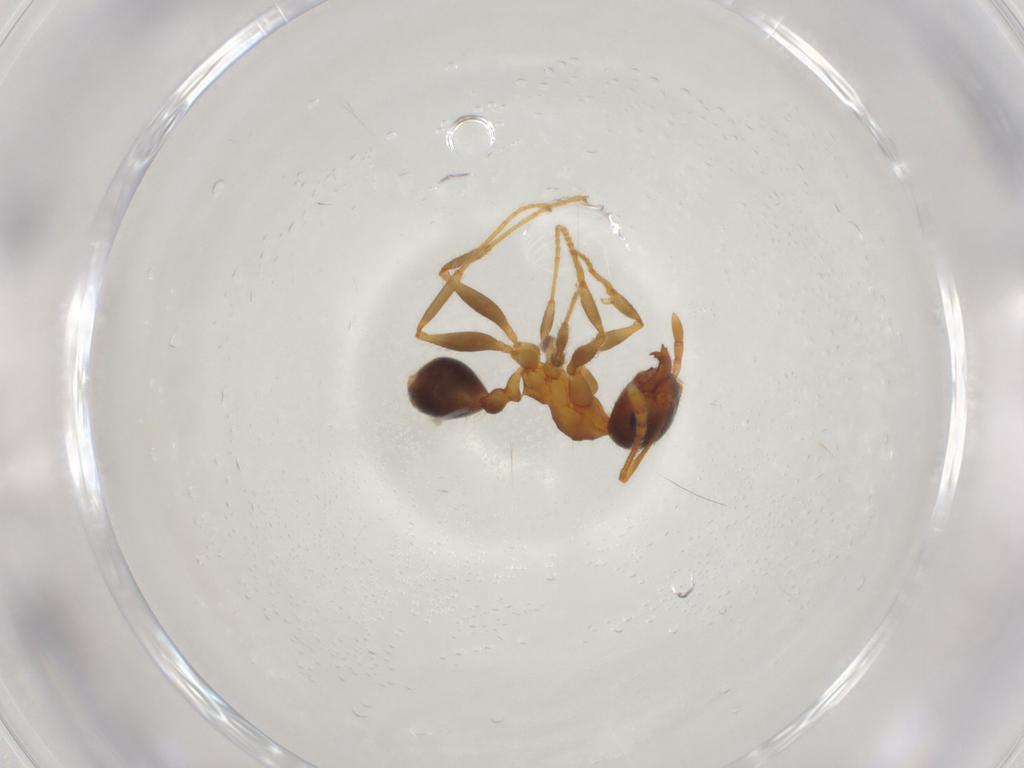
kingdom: Animalia
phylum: Arthropoda
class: Insecta
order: Hymenoptera
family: Formicidae
